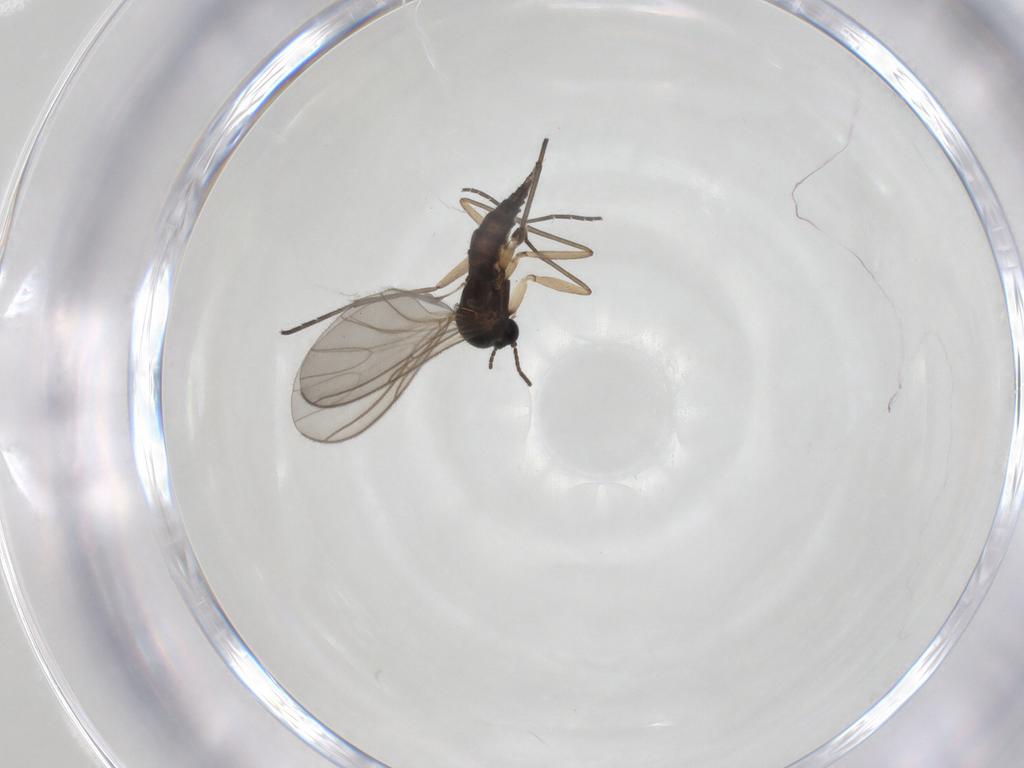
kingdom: Animalia
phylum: Arthropoda
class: Insecta
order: Diptera
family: Sciaridae
